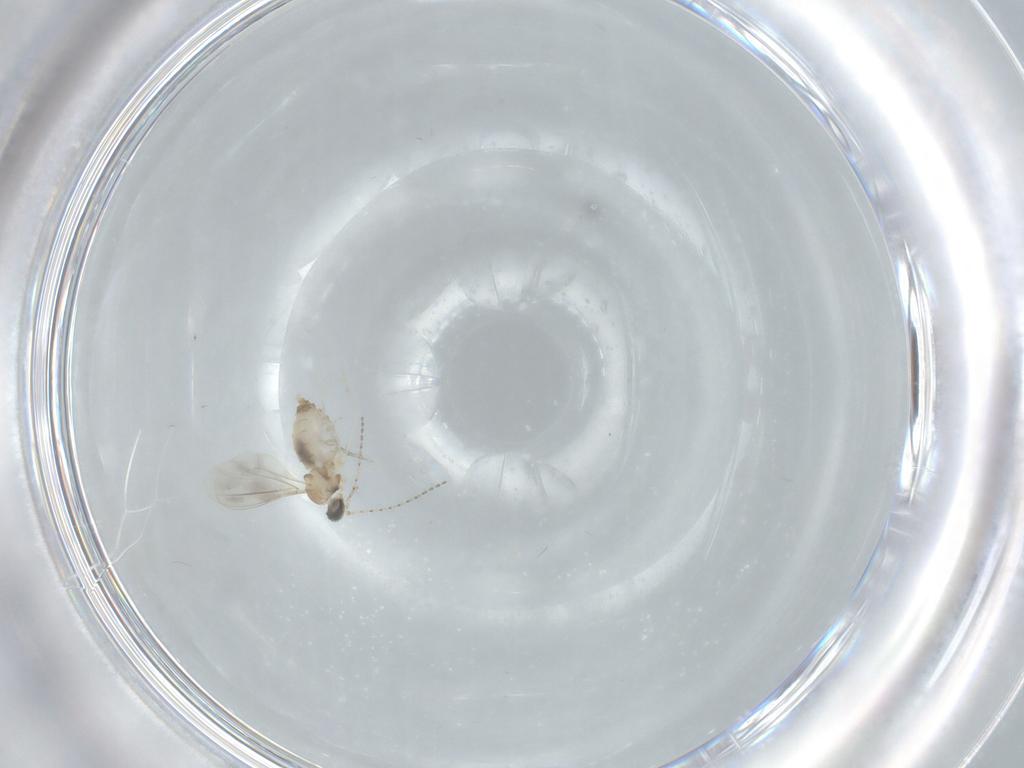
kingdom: Animalia
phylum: Arthropoda
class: Insecta
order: Diptera
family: Cecidomyiidae
